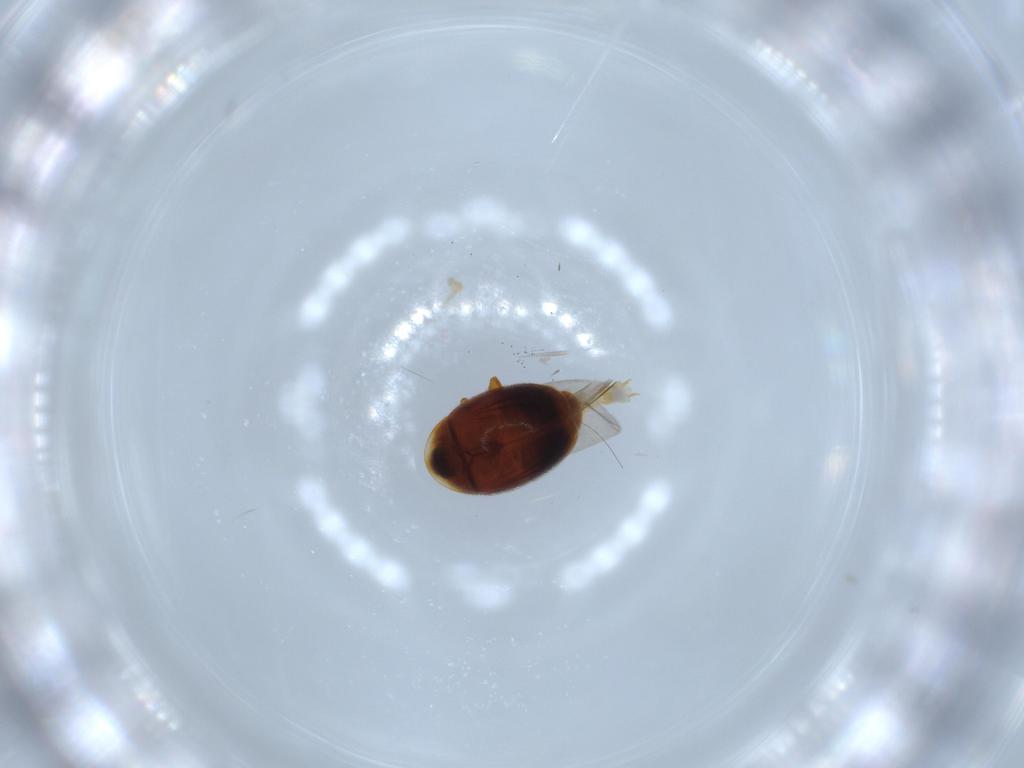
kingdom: Animalia
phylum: Arthropoda
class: Insecta
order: Coleoptera
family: Corylophidae
